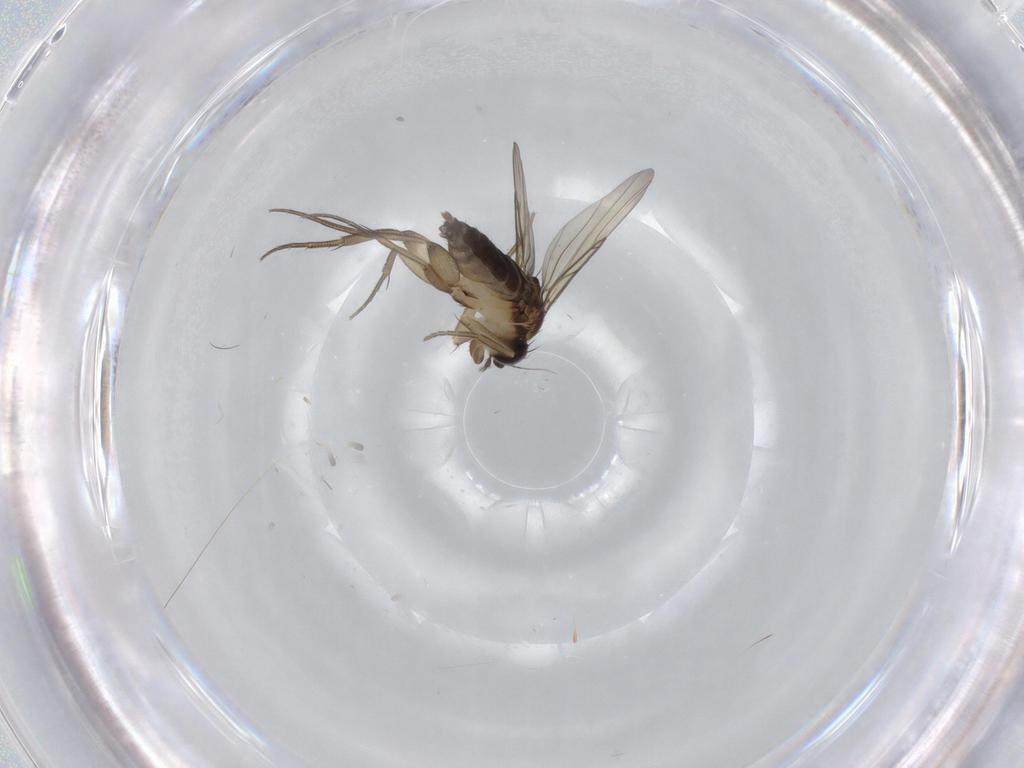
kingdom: Animalia
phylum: Arthropoda
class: Insecta
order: Diptera
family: Phoridae
